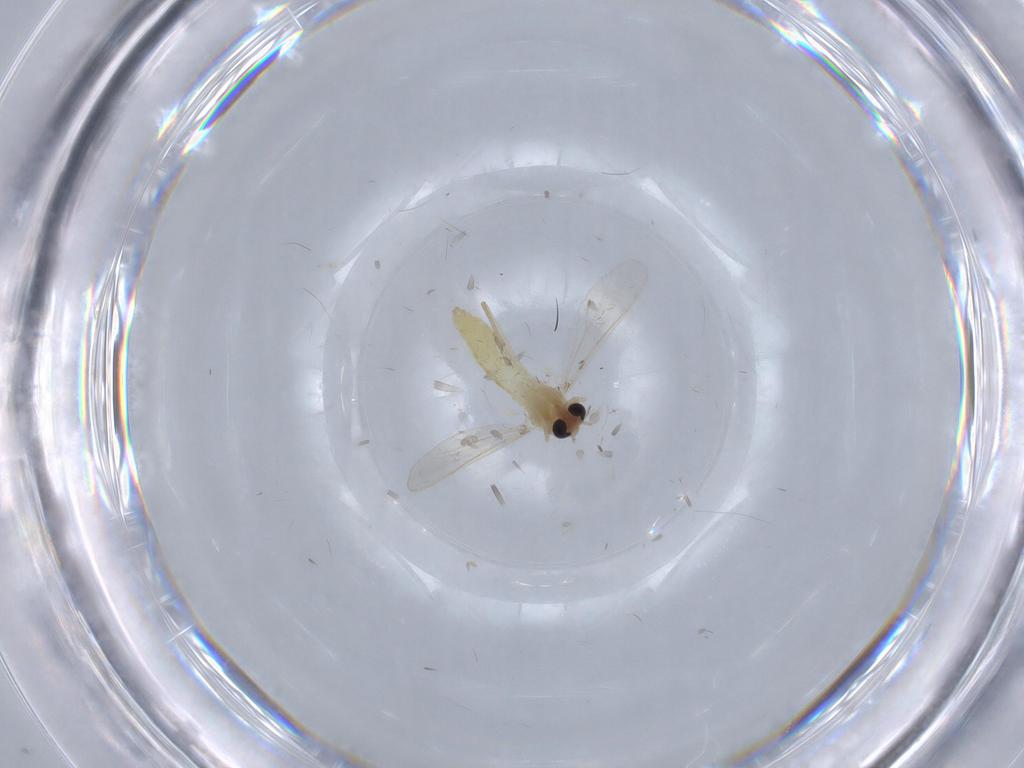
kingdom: Animalia
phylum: Arthropoda
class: Insecta
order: Diptera
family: Chironomidae
